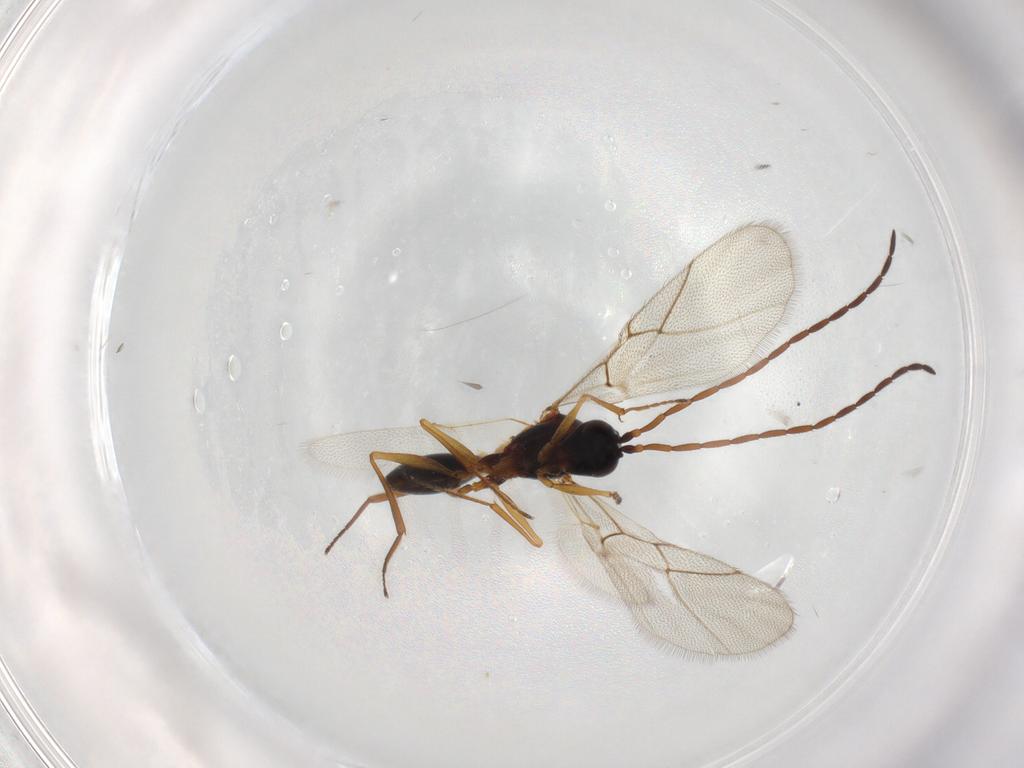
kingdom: Animalia
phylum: Arthropoda
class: Insecta
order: Hymenoptera
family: Figitidae
